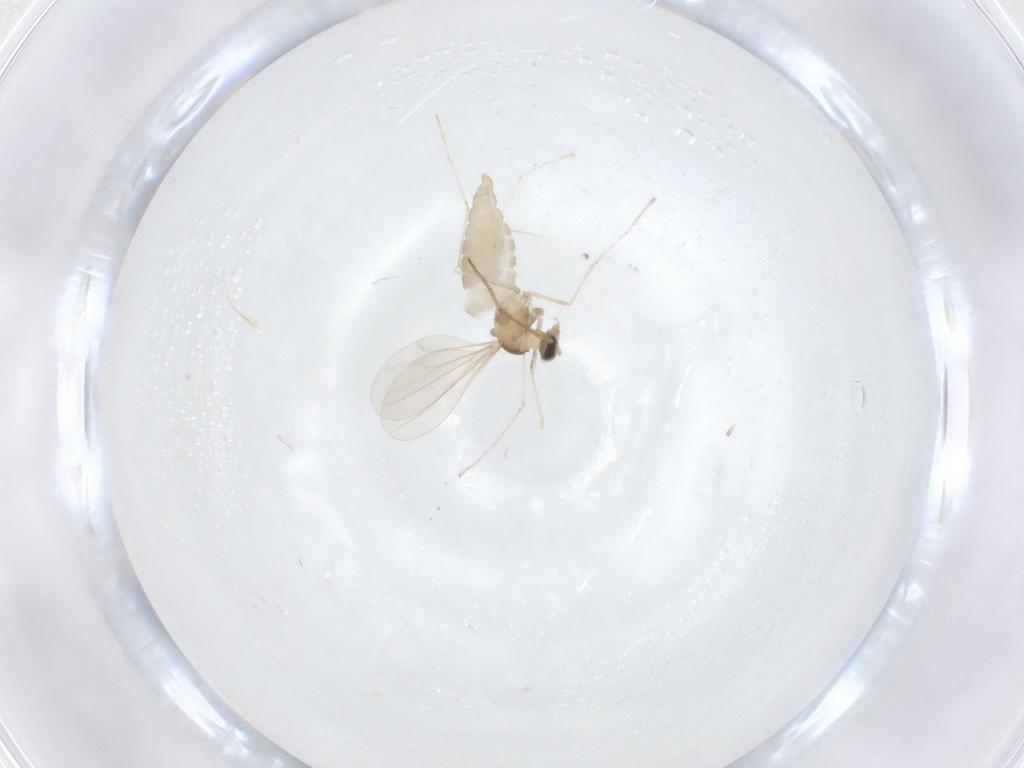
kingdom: Animalia
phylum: Arthropoda
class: Insecta
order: Diptera
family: Cecidomyiidae
